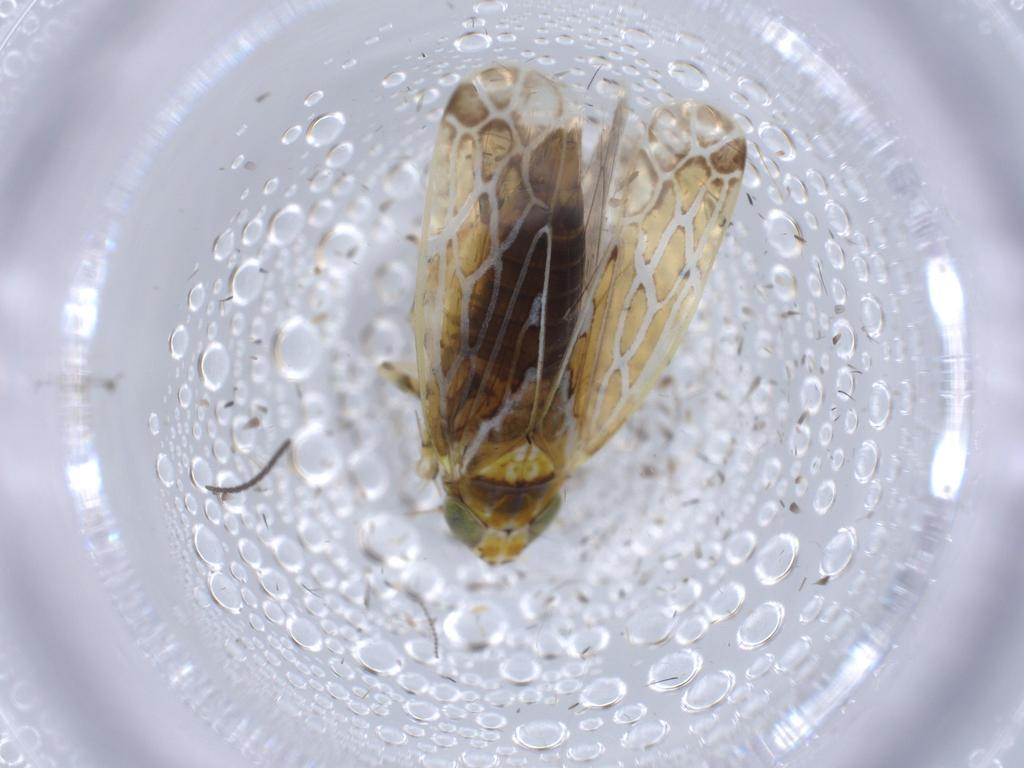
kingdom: Animalia
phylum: Arthropoda
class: Insecta
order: Hemiptera
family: Cicadellidae
